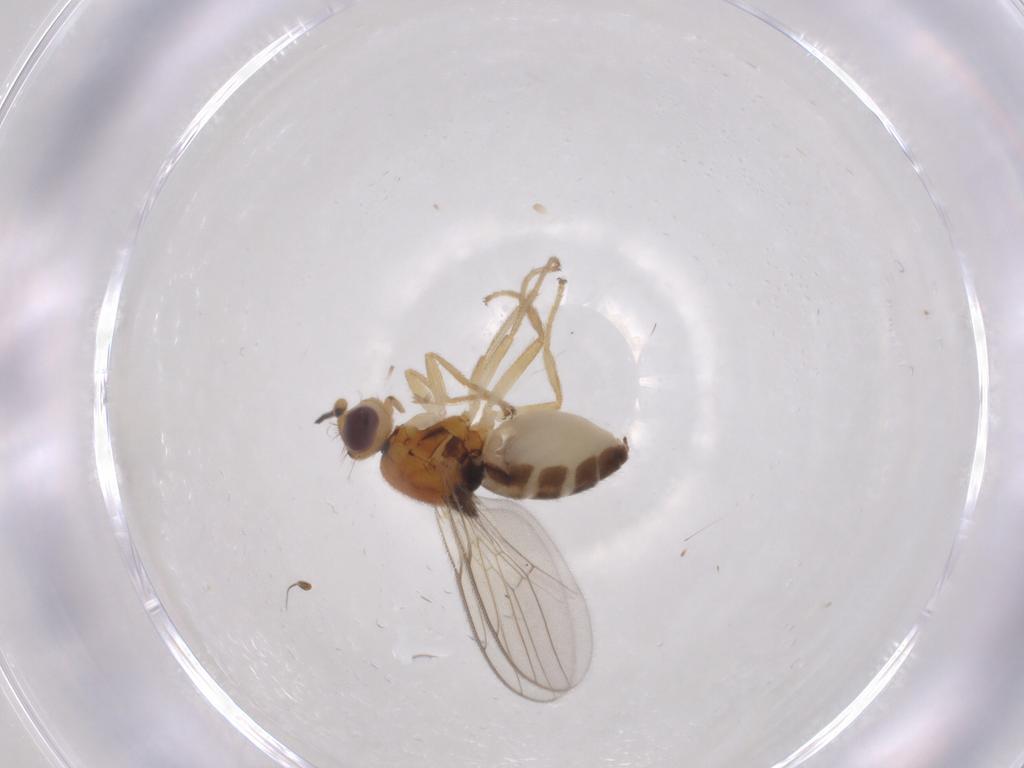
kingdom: Animalia
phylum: Arthropoda
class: Insecta
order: Diptera
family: Chloropidae
